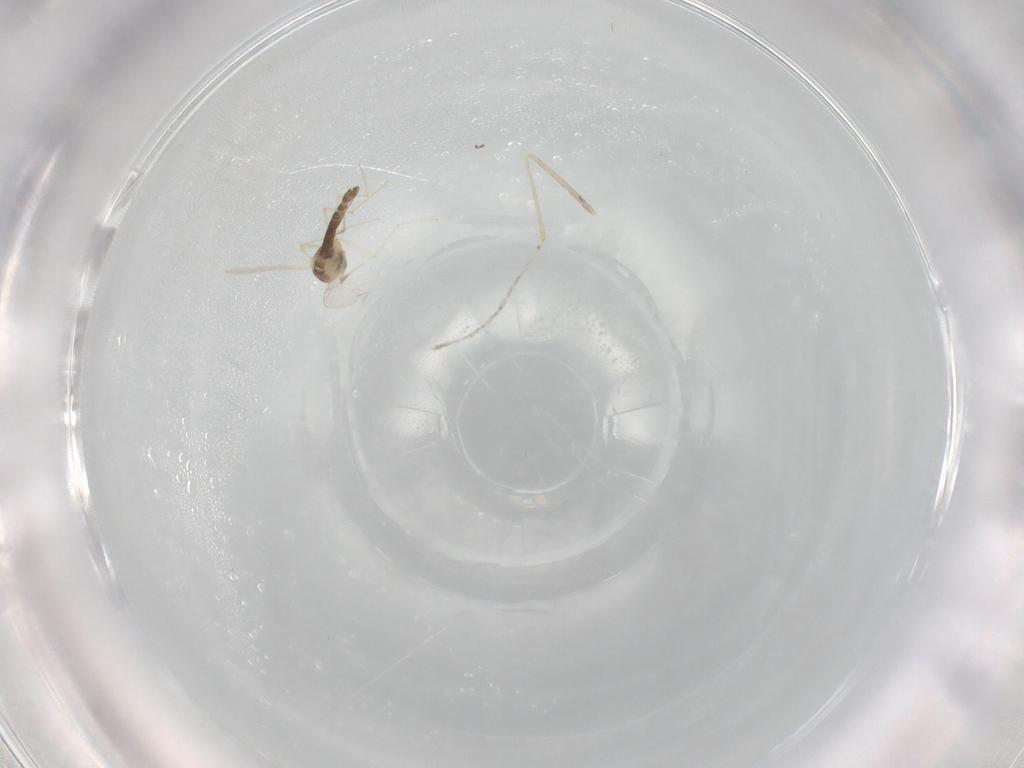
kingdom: Animalia
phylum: Arthropoda
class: Insecta
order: Diptera
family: Chironomidae
